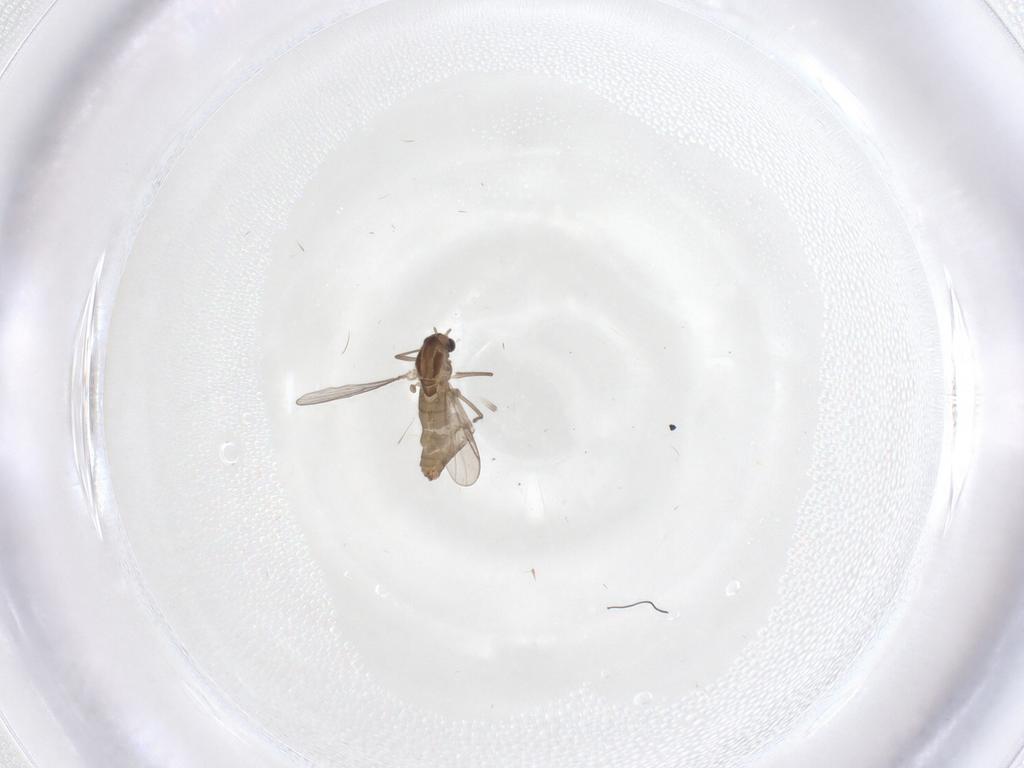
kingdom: Animalia
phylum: Arthropoda
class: Insecta
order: Diptera
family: Chironomidae
